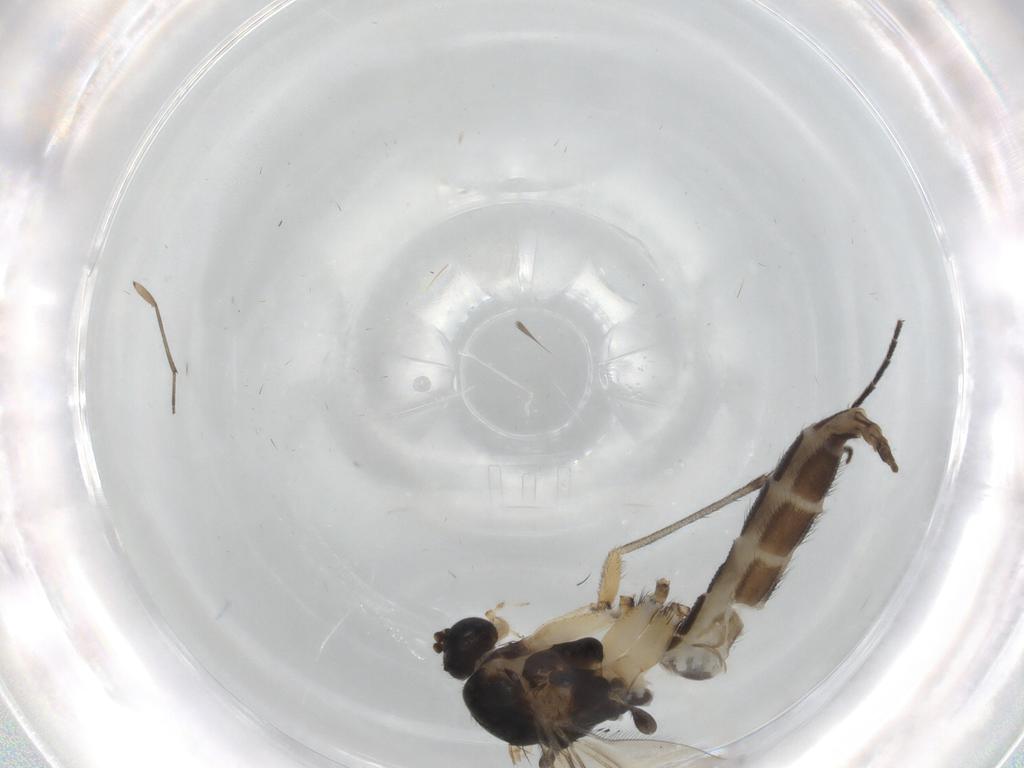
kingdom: Animalia
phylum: Arthropoda
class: Insecta
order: Diptera
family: Sciaridae
